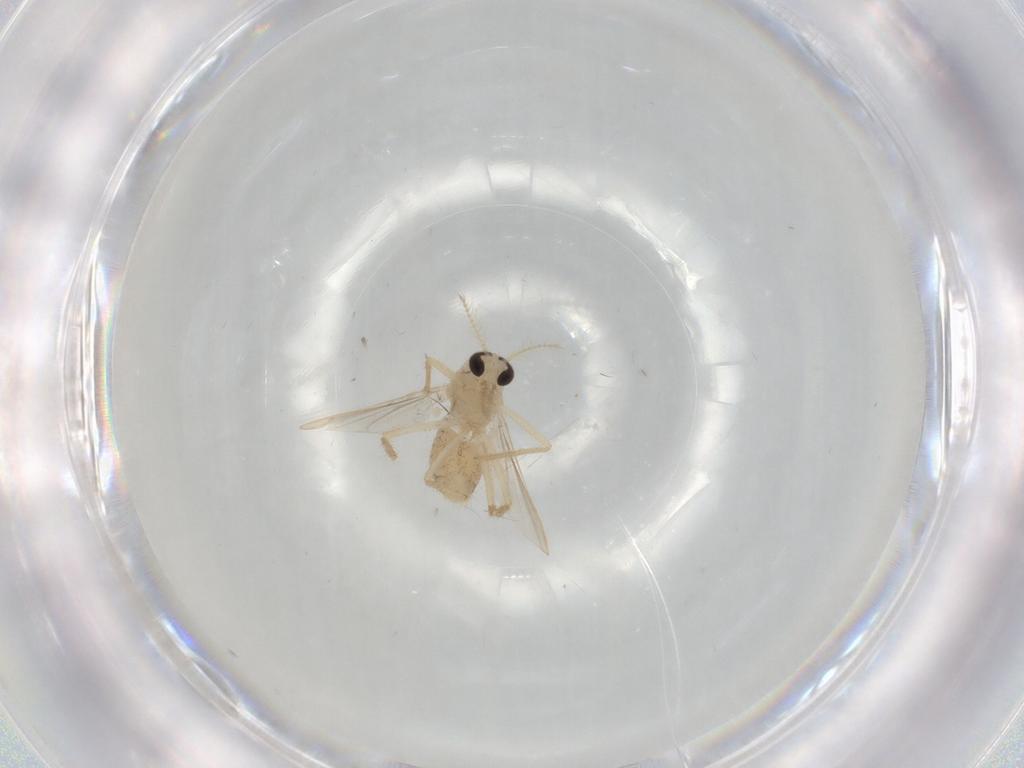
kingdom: Animalia
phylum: Arthropoda
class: Insecta
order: Diptera
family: Chironomidae
